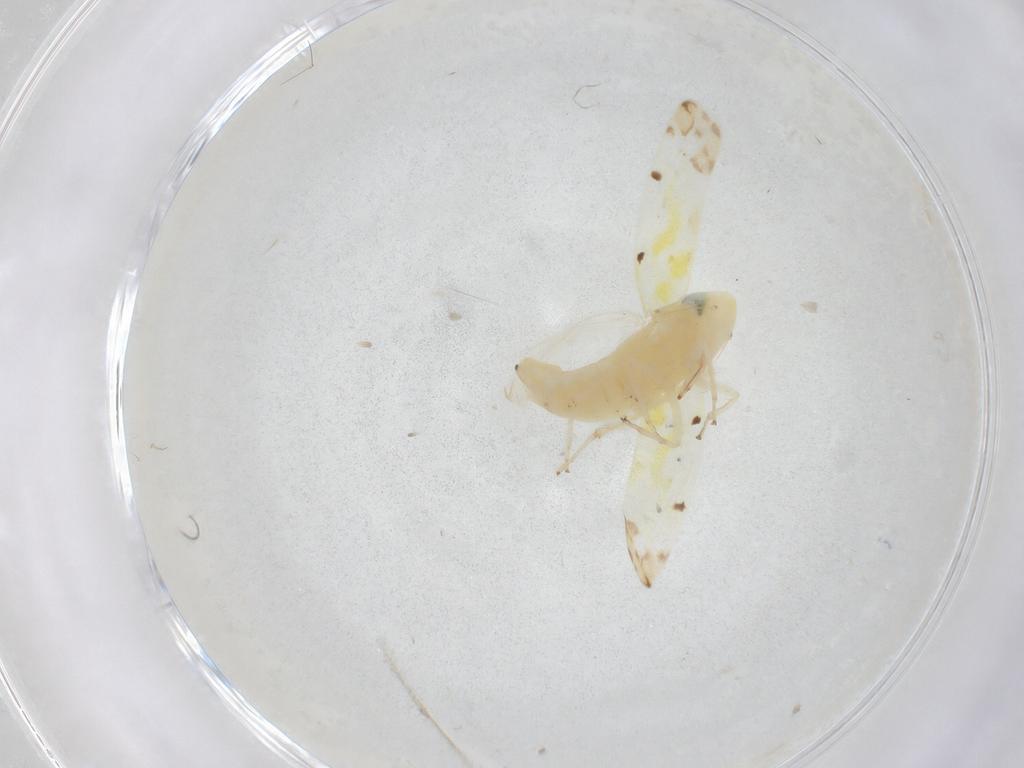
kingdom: Animalia
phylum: Arthropoda
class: Insecta
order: Hemiptera
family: Cicadellidae
